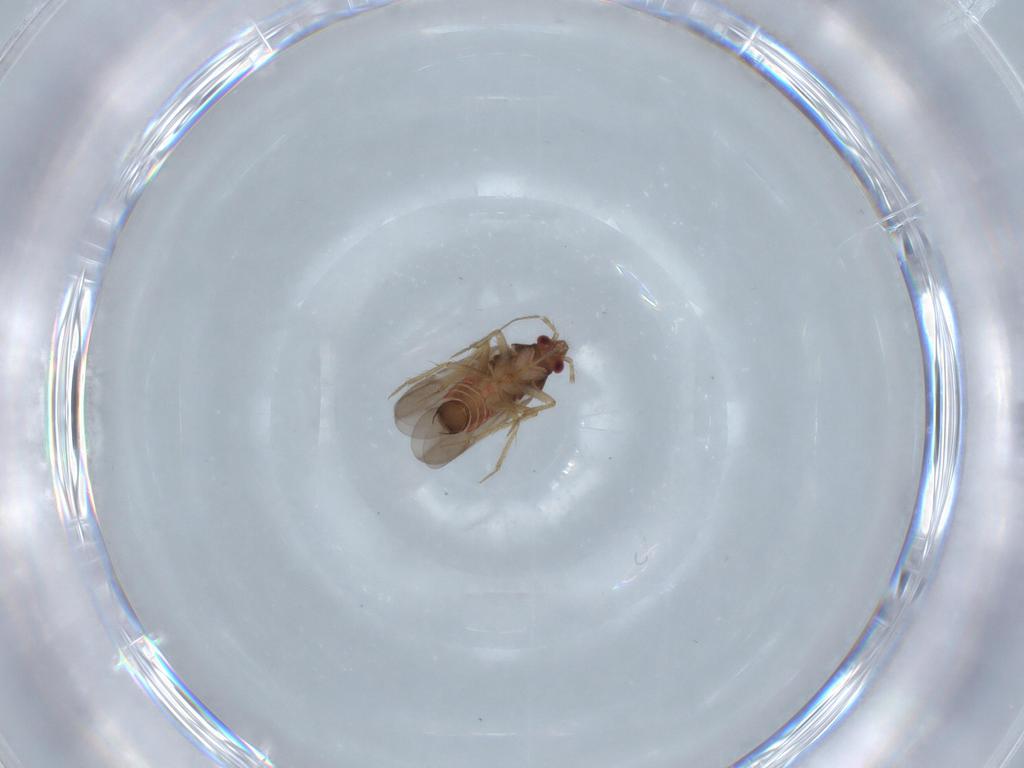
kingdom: Animalia
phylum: Arthropoda
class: Insecta
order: Hemiptera
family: Ceratocombidae
